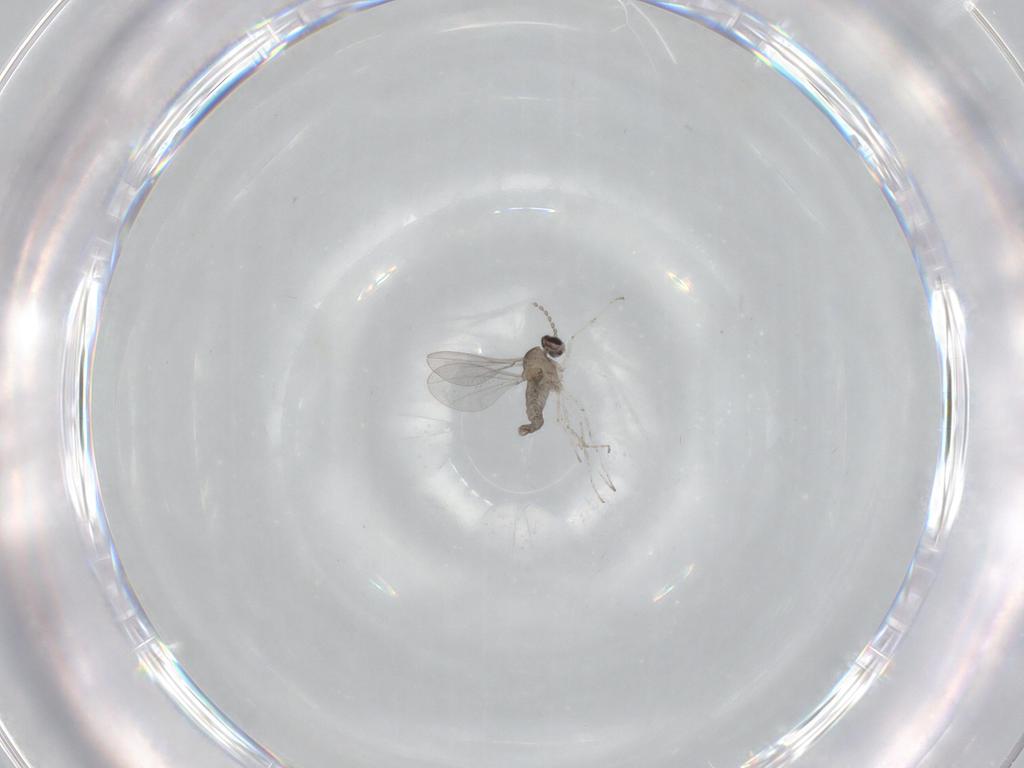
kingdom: Animalia
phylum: Arthropoda
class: Insecta
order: Diptera
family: Cecidomyiidae
